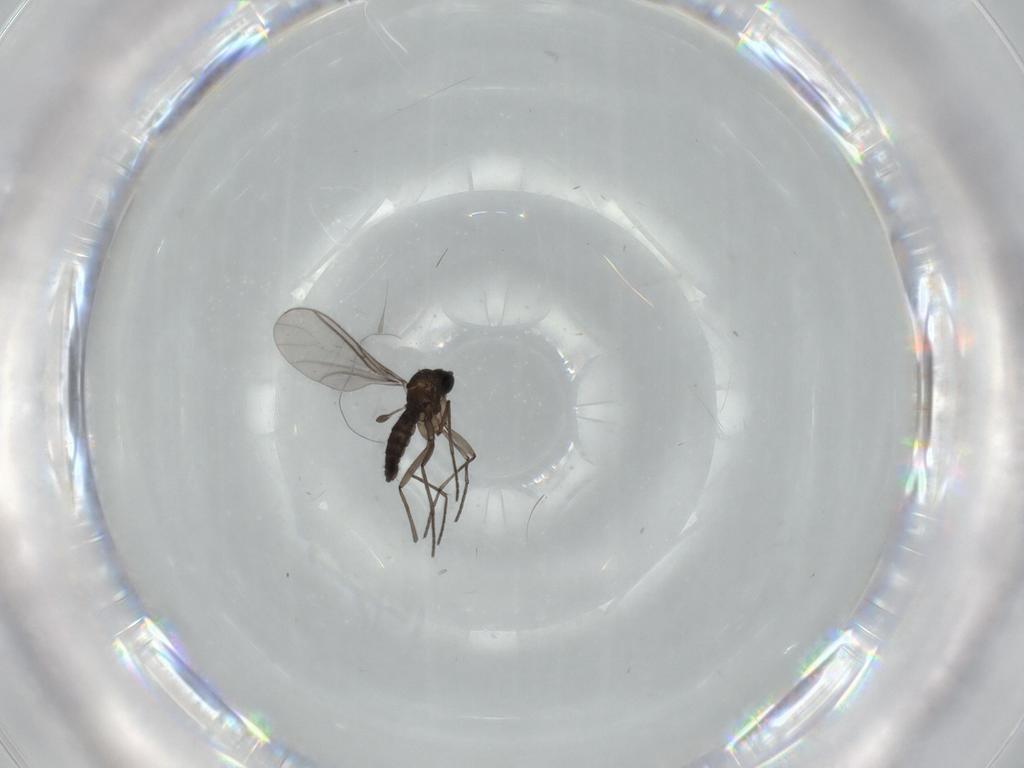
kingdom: Animalia
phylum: Arthropoda
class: Insecta
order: Diptera
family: Sciaridae
